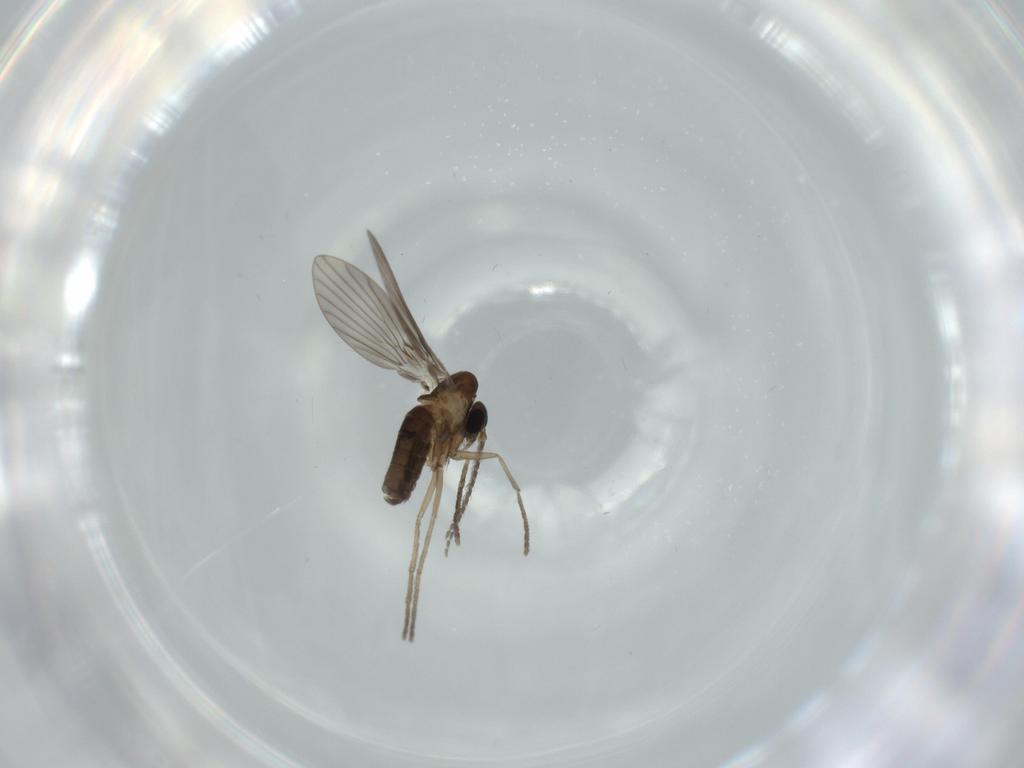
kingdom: Animalia
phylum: Arthropoda
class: Insecta
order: Diptera
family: Psychodidae
